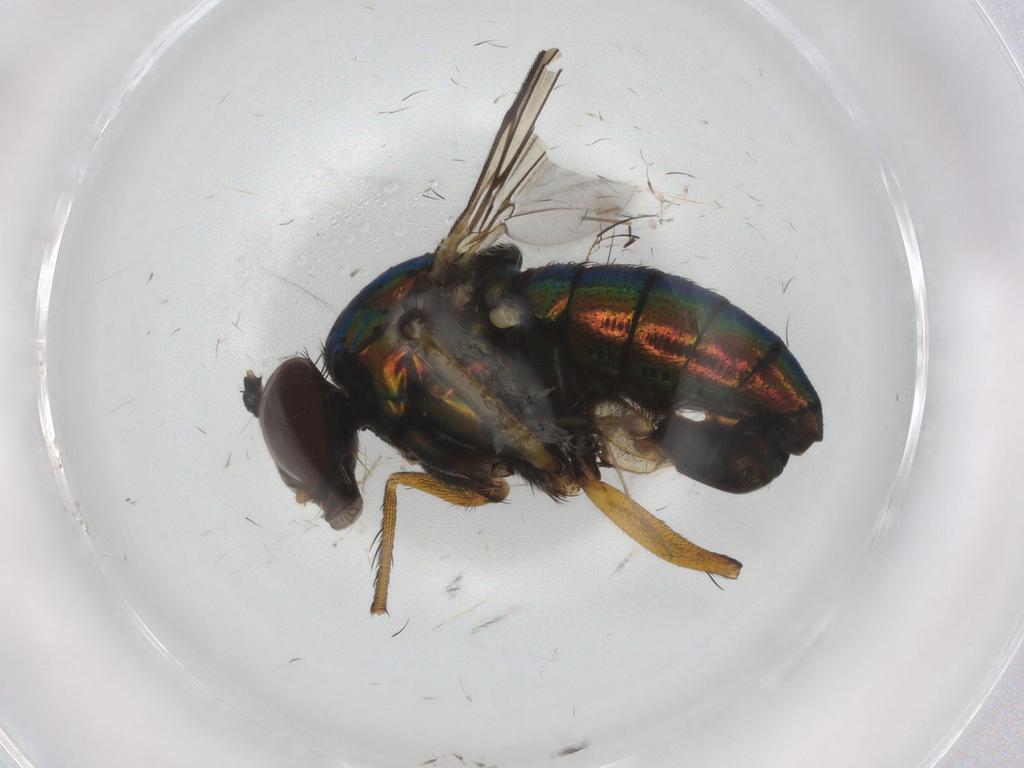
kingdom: Animalia
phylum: Arthropoda
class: Insecta
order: Diptera
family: Dolichopodidae
